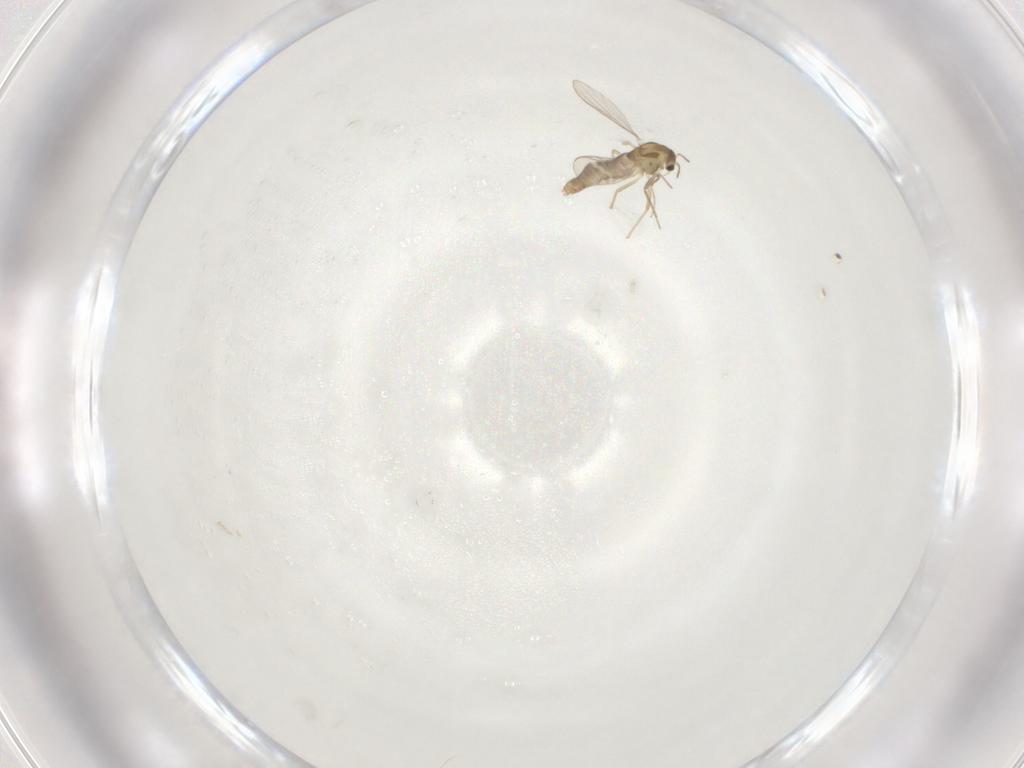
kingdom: Animalia
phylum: Arthropoda
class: Insecta
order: Diptera
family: Chironomidae
